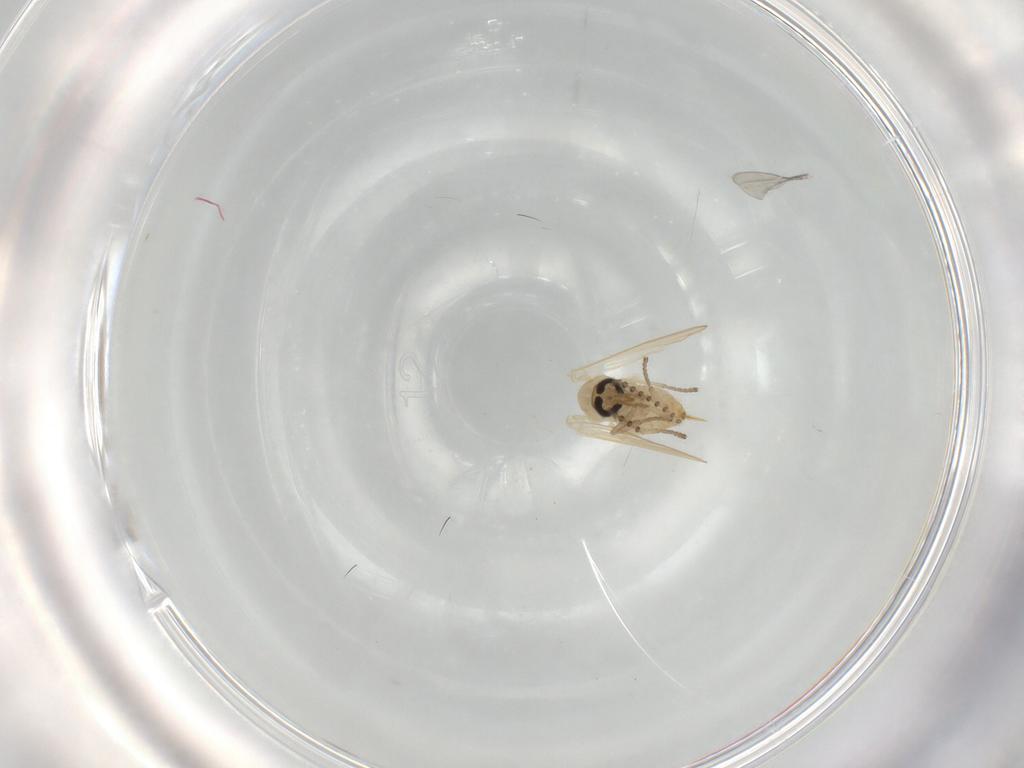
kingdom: Animalia
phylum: Arthropoda
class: Insecta
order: Diptera
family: Psychodidae
